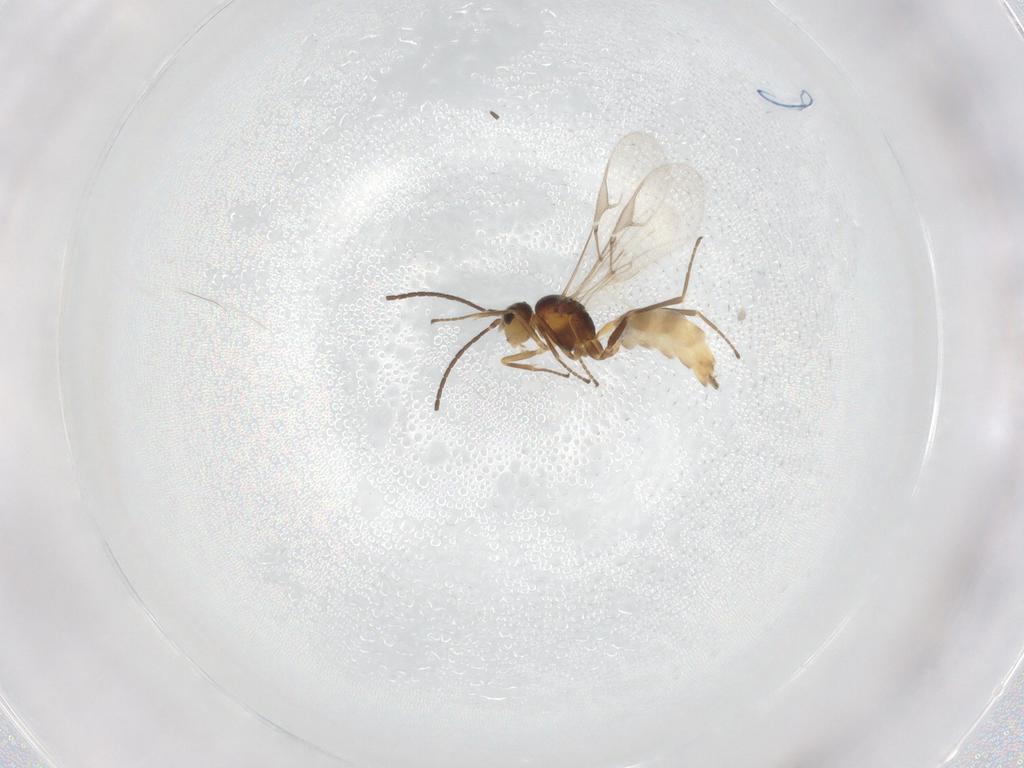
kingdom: Animalia
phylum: Arthropoda
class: Insecta
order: Hymenoptera
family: Braconidae
